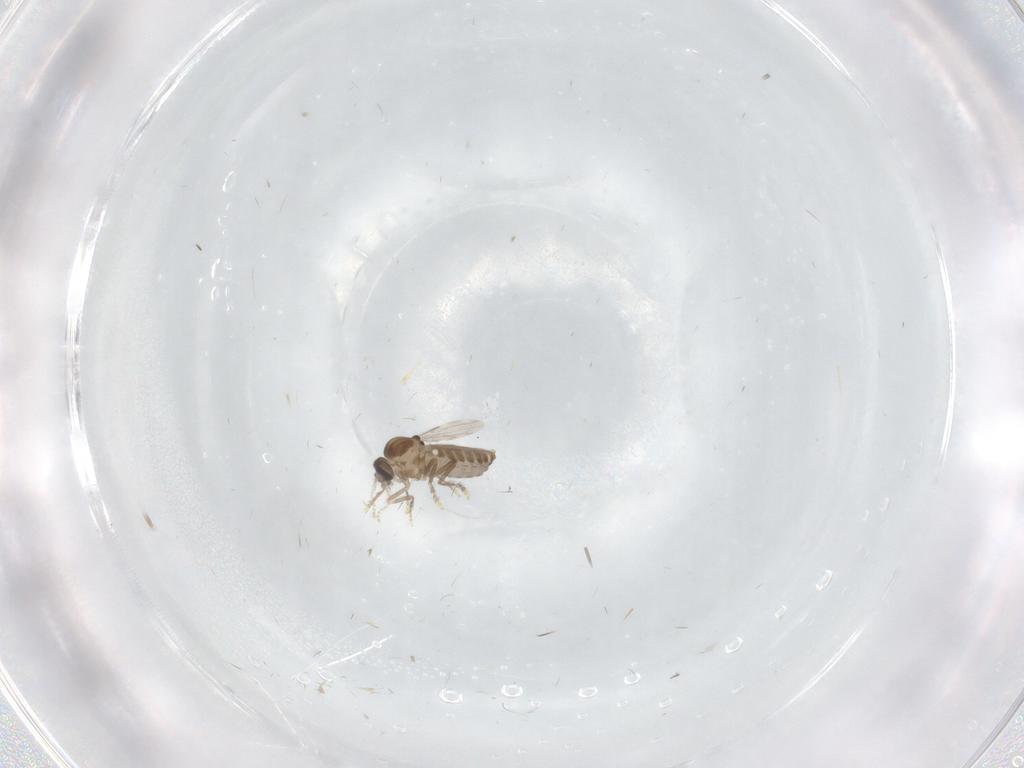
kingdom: Animalia
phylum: Arthropoda
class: Insecta
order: Diptera
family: Ceratopogonidae
